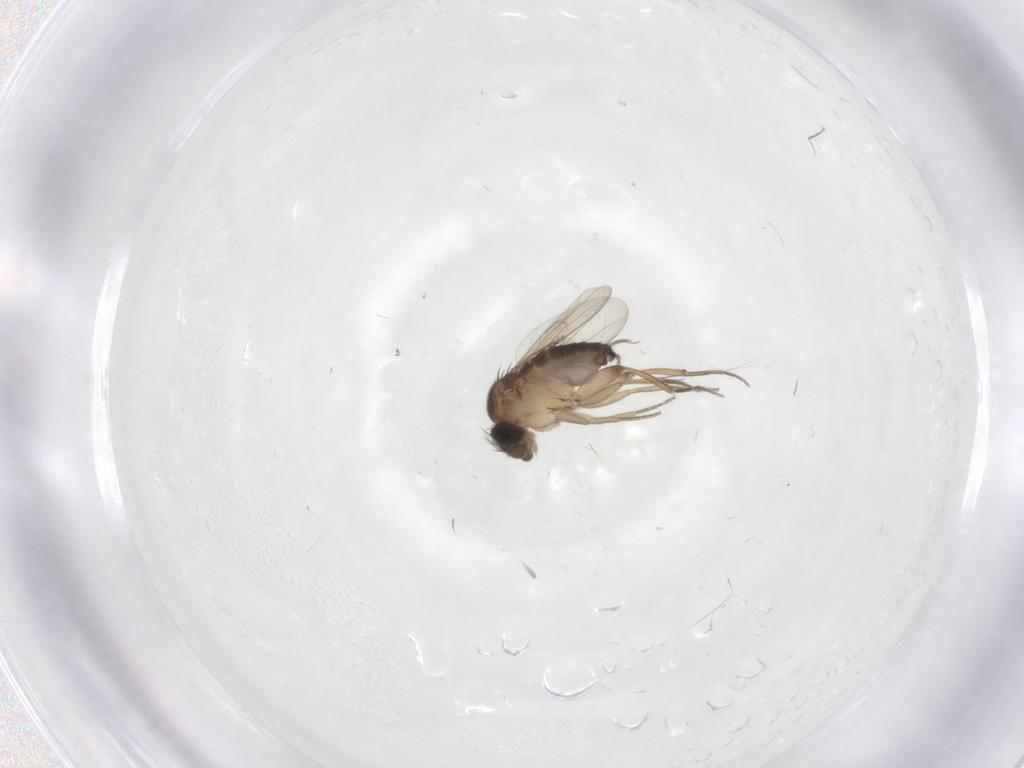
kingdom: Animalia
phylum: Arthropoda
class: Insecta
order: Diptera
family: Phoridae
